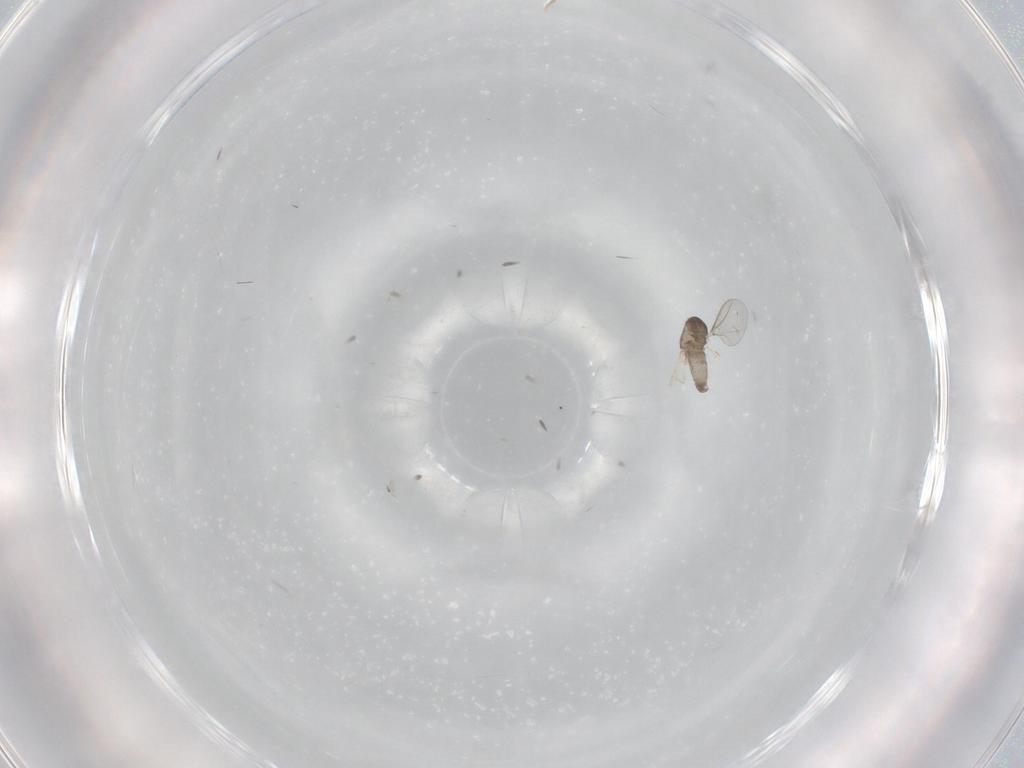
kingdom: Animalia
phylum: Arthropoda
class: Insecta
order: Diptera
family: Cecidomyiidae
